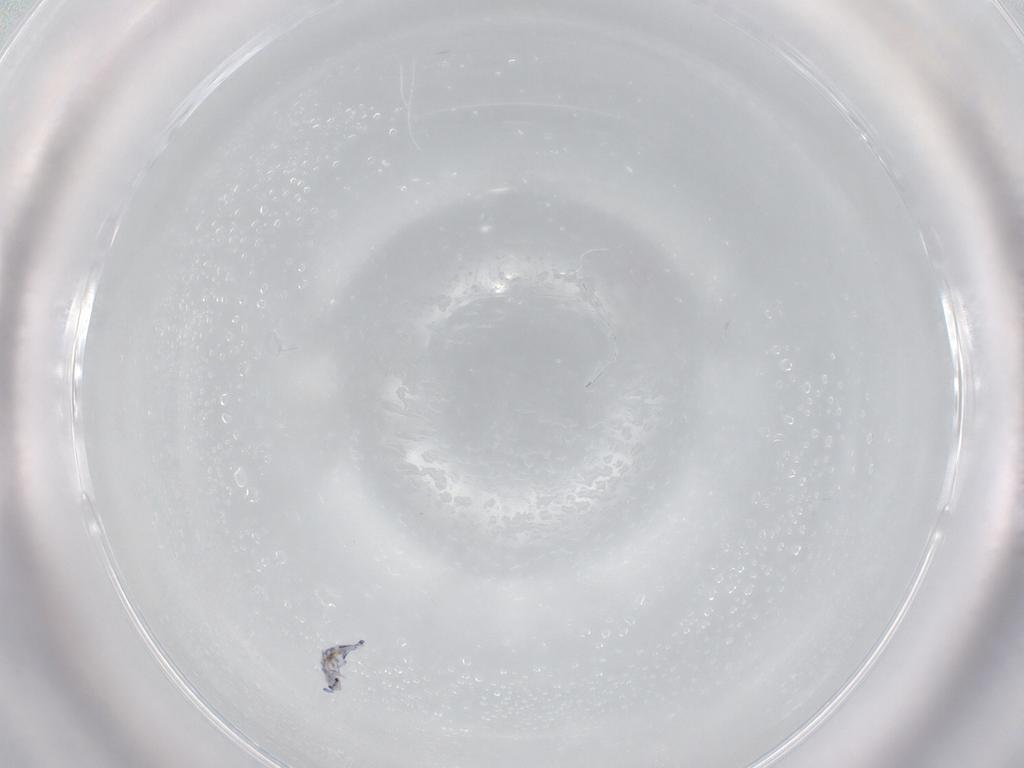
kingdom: Animalia
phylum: Arthropoda
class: Collembola
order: Entomobryomorpha
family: Entomobryidae
